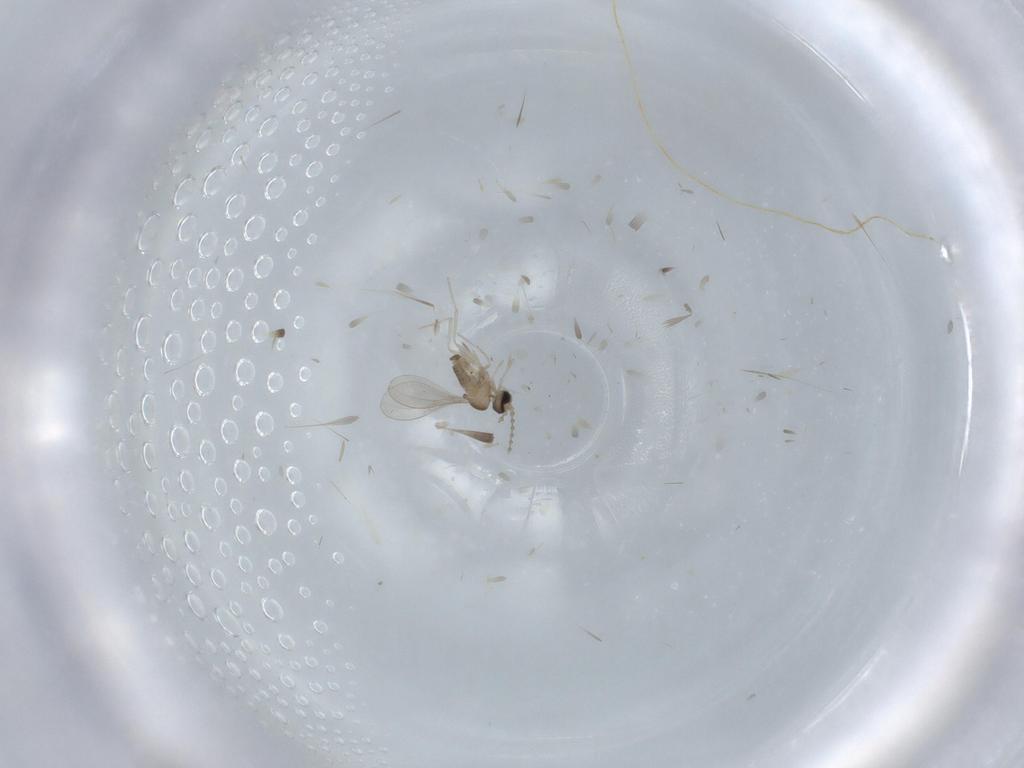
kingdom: Animalia
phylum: Arthropoda
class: Insecta
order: Diptera
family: Cecidomyiidae
